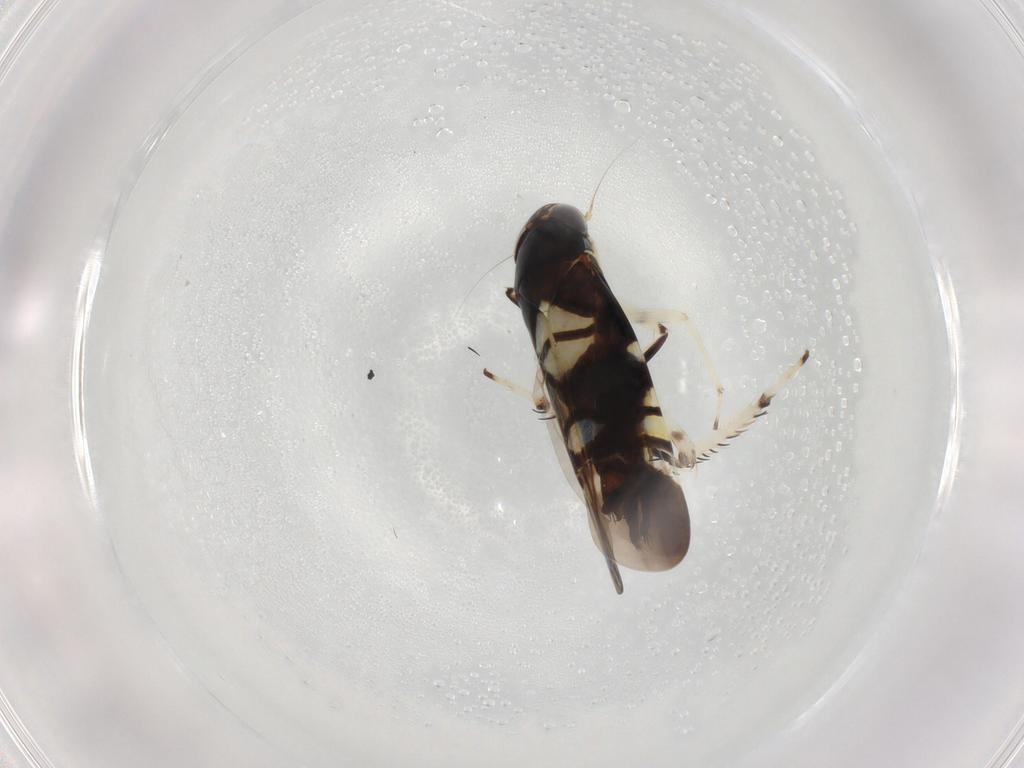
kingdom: Animalia
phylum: Arthropoda
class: Insecta
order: Hemiptera
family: Cicadellidae
